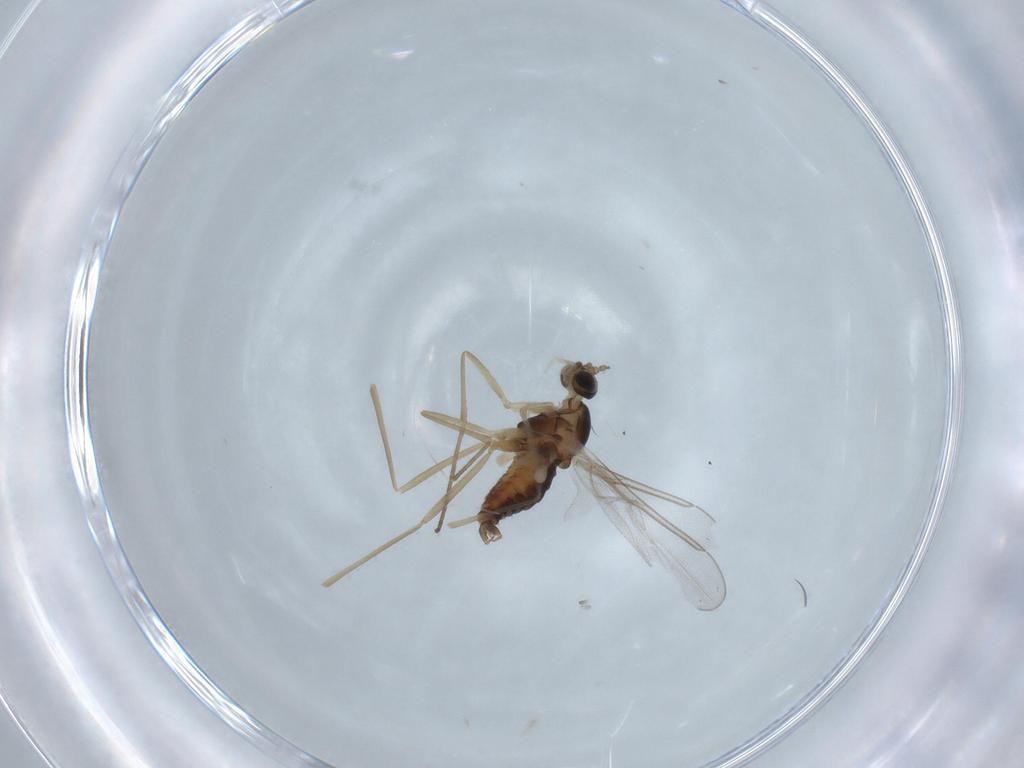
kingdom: Animalia
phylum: Arthropoda
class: Insecta
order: Diptera
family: Cecidomyiidae
